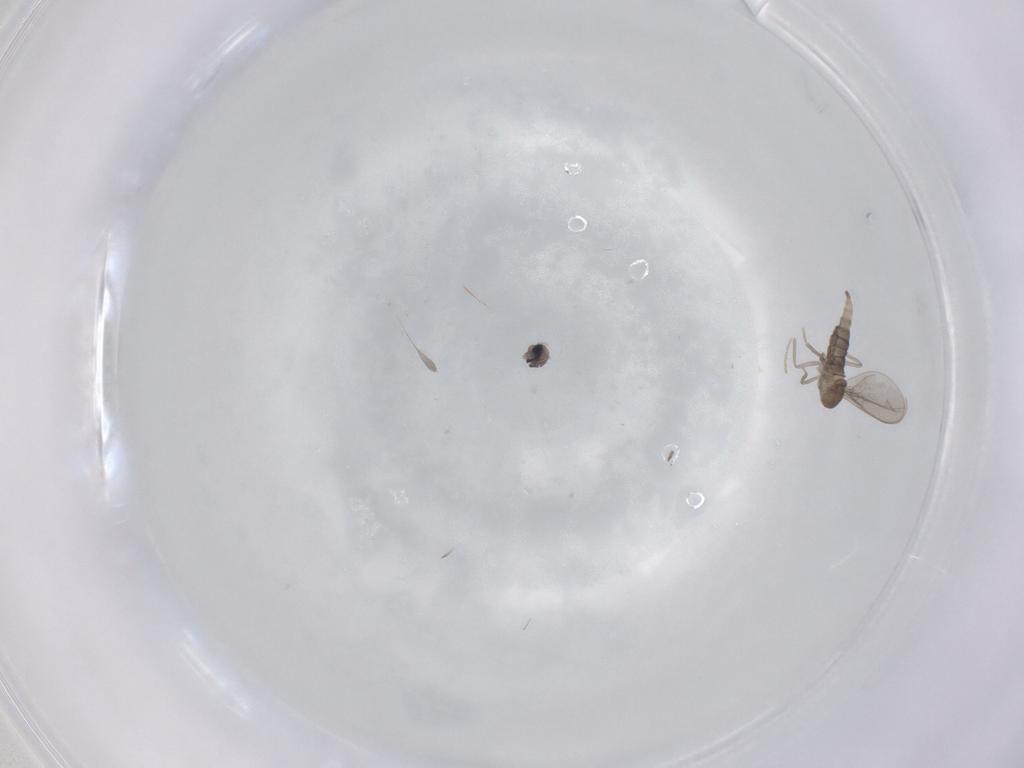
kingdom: Animalia
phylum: Arthropoda
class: Insecta
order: Diptera
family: Cecidomyiidae
